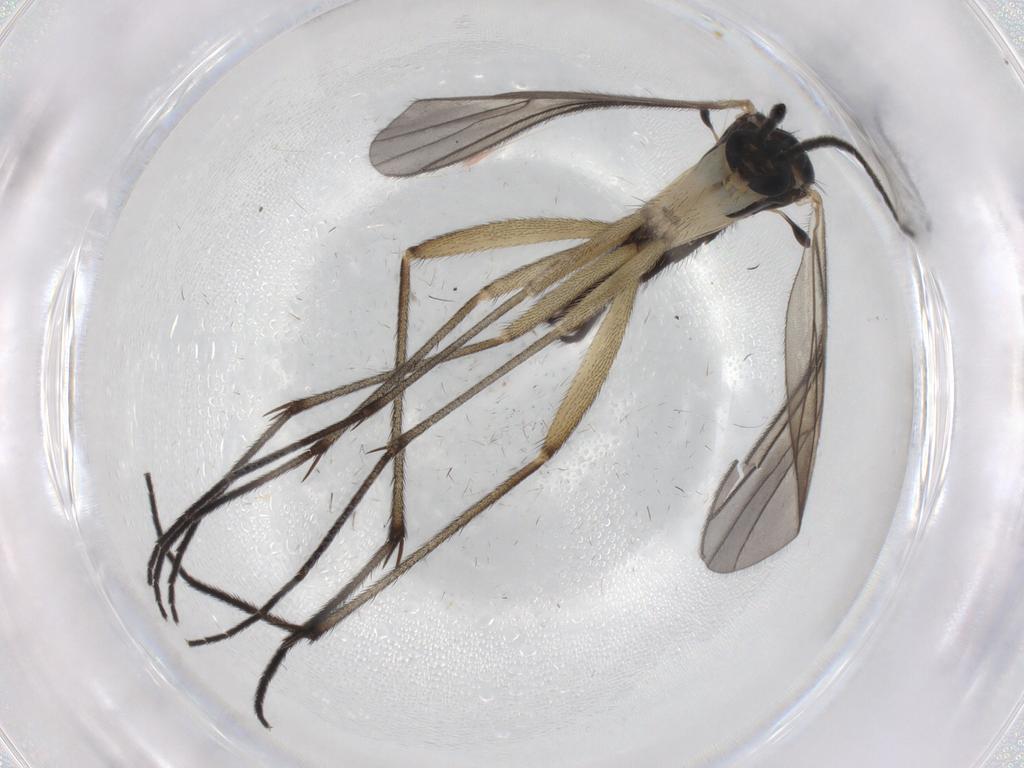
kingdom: Animalia
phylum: Arthropoda
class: Insecta
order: Diptera
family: Sciaridae
